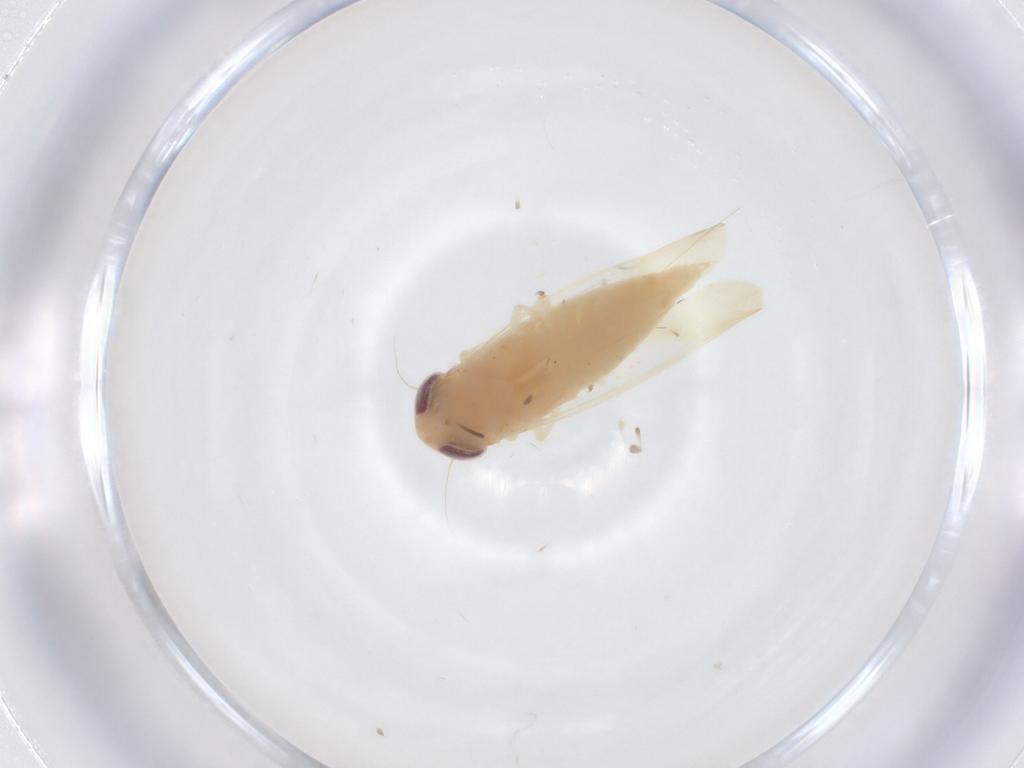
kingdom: Animalia
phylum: Arthropoda
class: Insecta
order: Hemiptera
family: Cicadellidae
